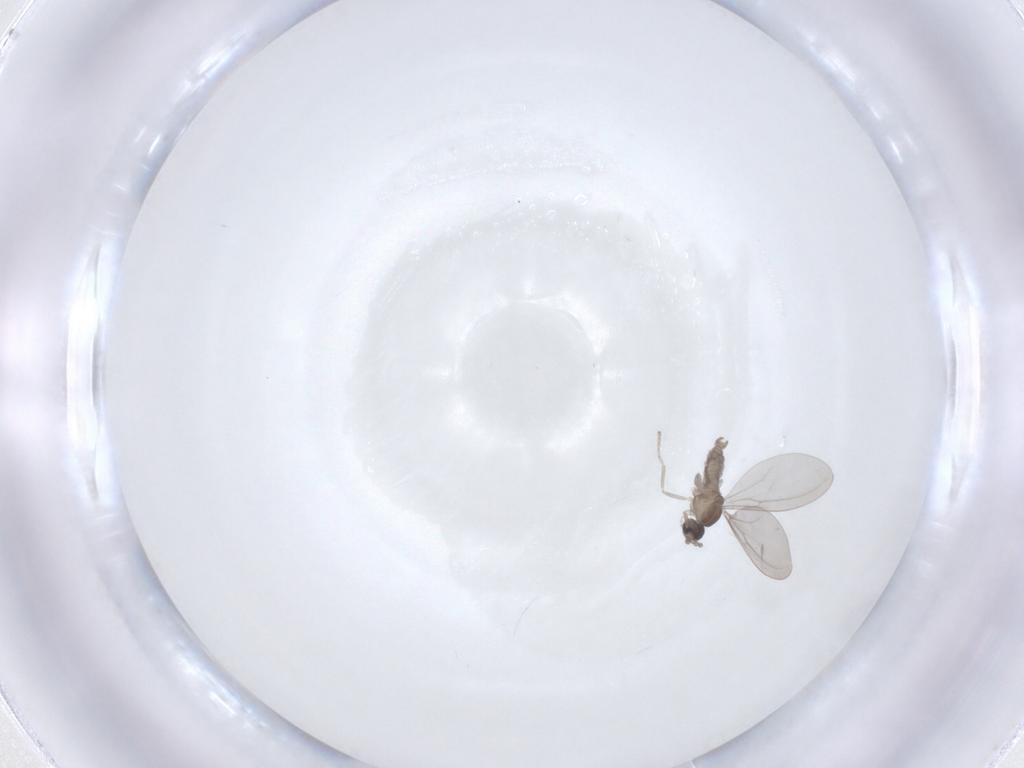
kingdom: Animalia
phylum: Arthropoda
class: Insecta
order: Diptera
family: Cecidomyiidae
